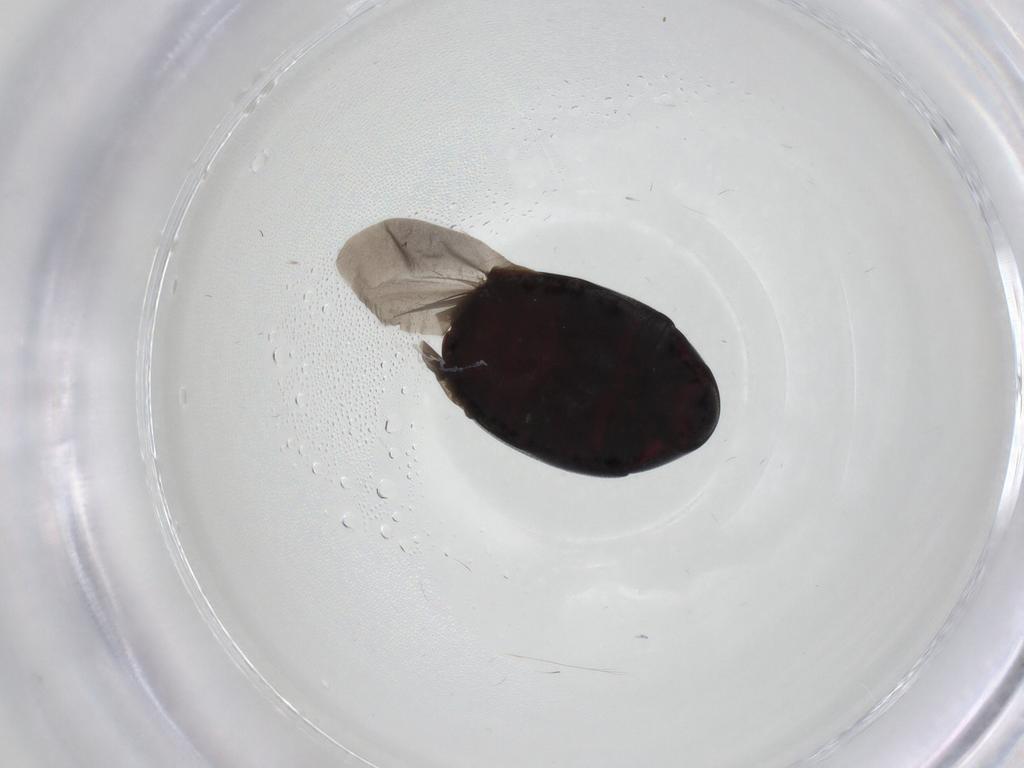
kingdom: Animalia
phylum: Arthropoda
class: Insecta
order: Coleoptera
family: Ptinidae
